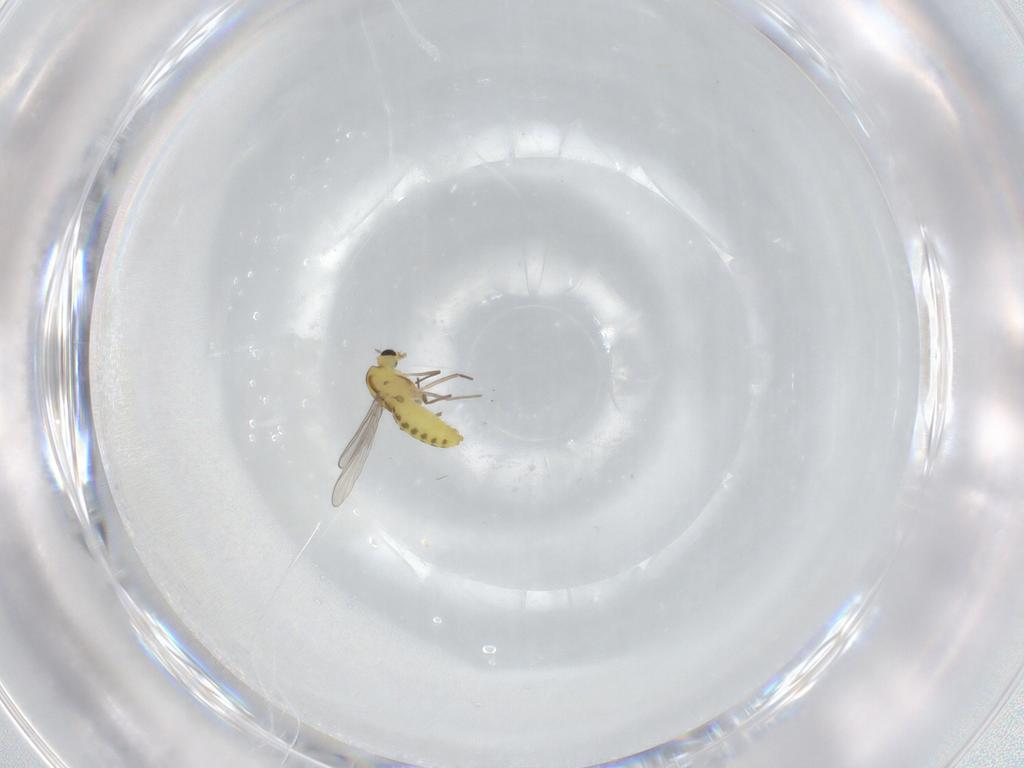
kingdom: Animalia
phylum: Arthropoda
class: Insecta
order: Diptera
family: Chironomidae
